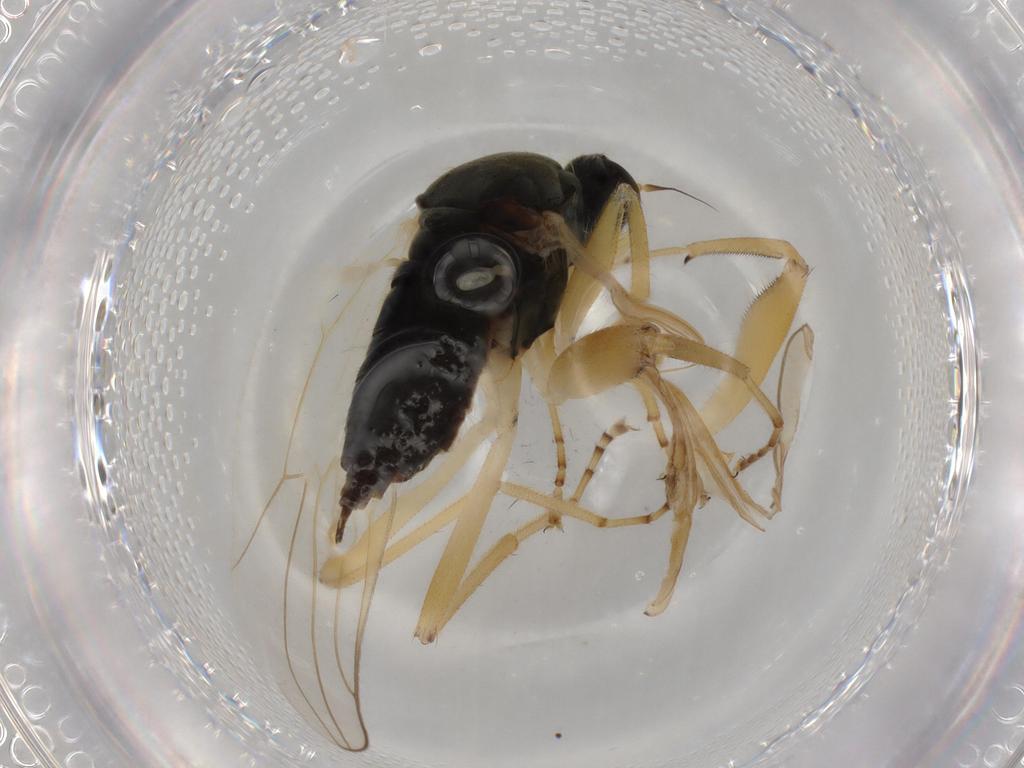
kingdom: Animalia
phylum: Arthropoda
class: Insecta
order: Diptera
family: Hybotidae
